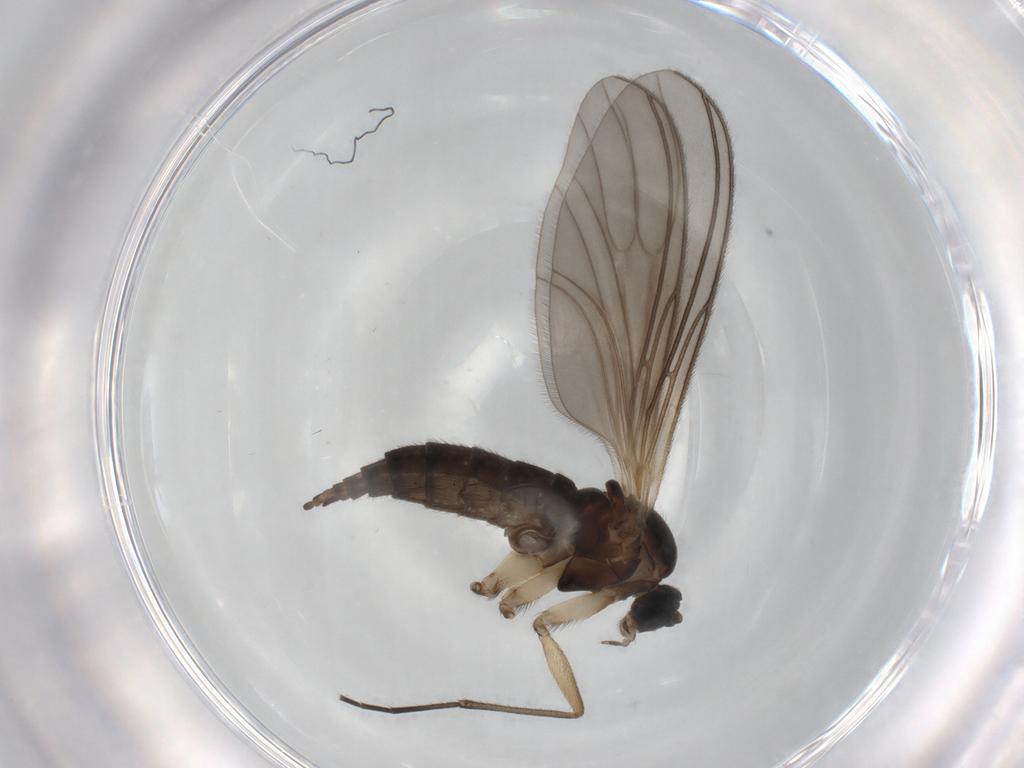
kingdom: Animalia
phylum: Arthropoda
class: Insecta
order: Diptera
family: Sciaridae
